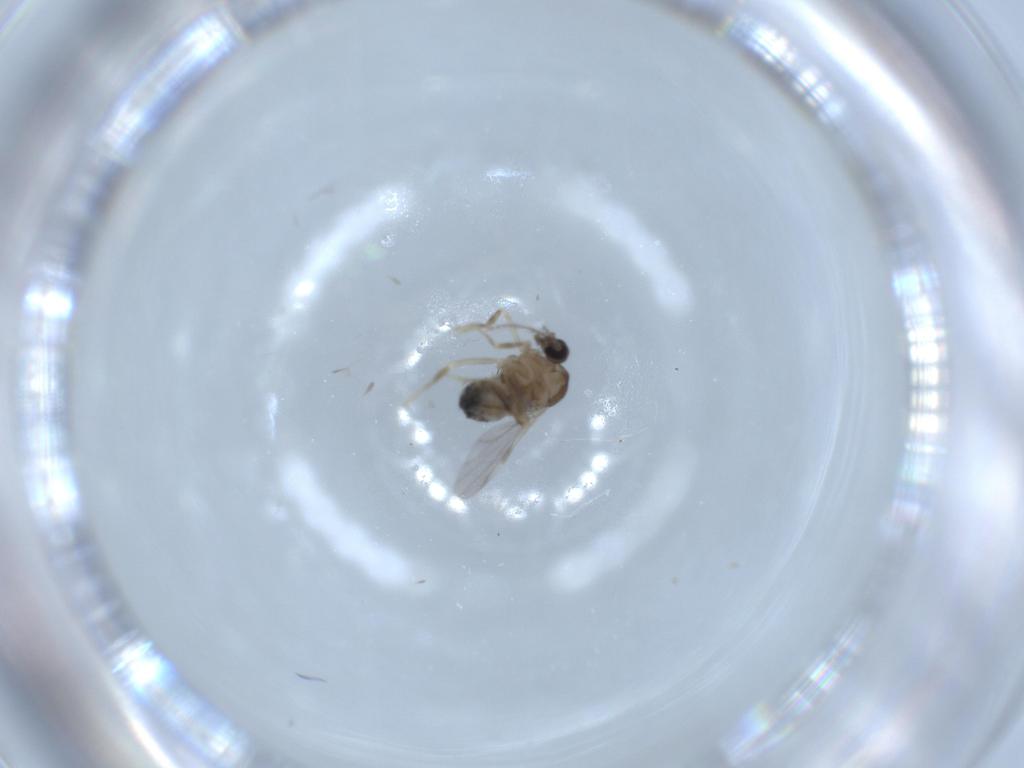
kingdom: Animalia
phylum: Arthropoda
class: Insecta
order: Diptera
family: Ceratopogonidae
